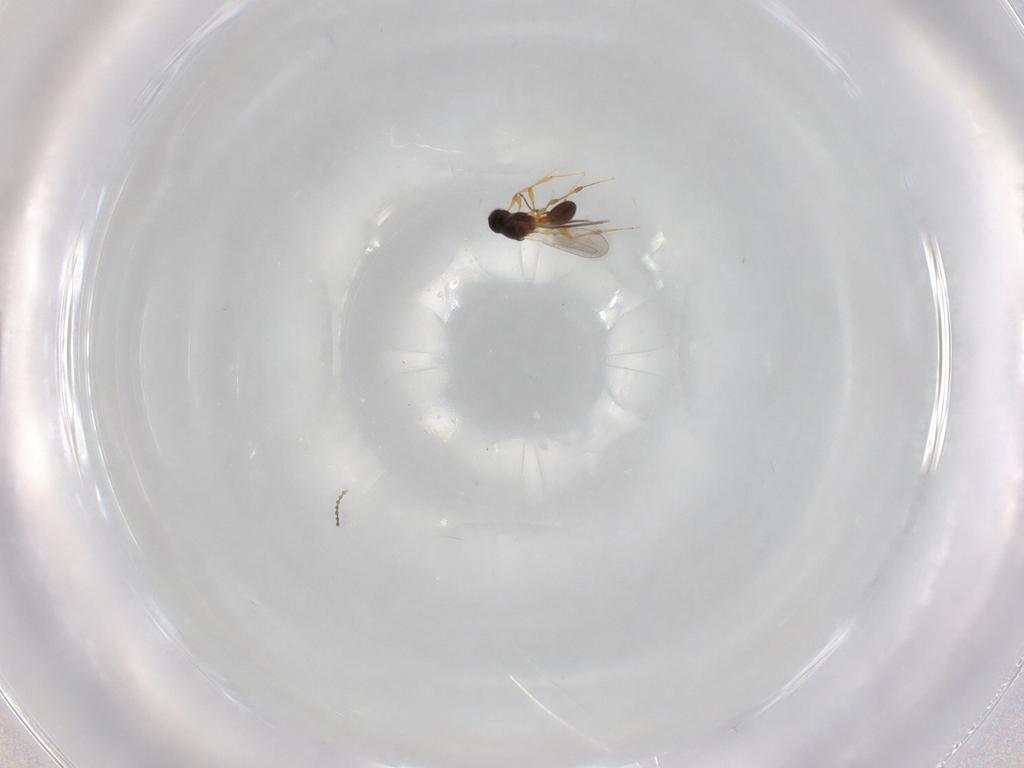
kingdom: Animalia
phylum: Arthropoda
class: Insecta
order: Hymenoptera
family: Platygastridae
